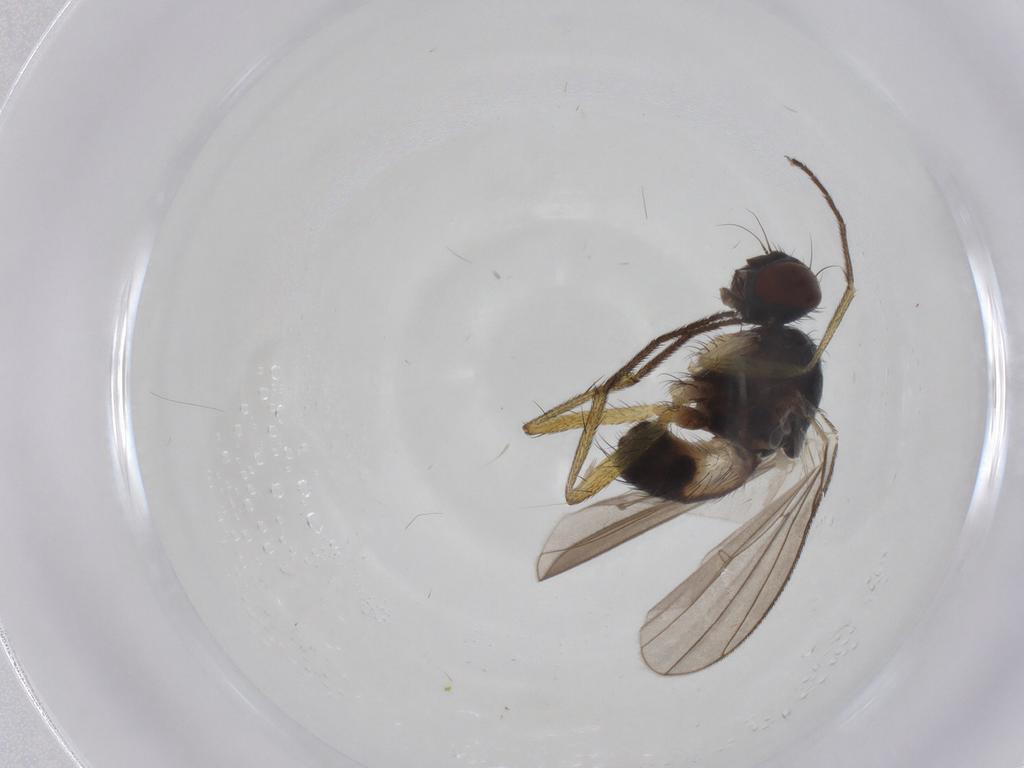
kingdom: Animalia
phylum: Arthropoda
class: Insecta
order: Diptera
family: Muscidae
